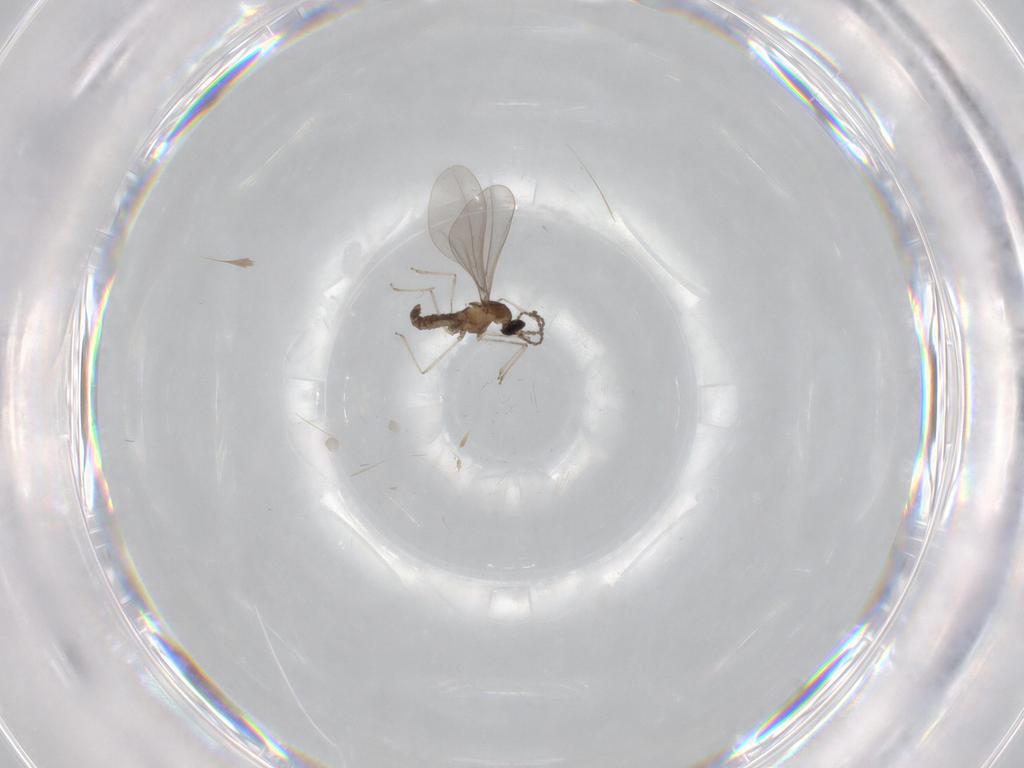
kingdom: Animalia
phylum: Arthropoda
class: Insecta
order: Diptera
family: Cecidomyiidae
